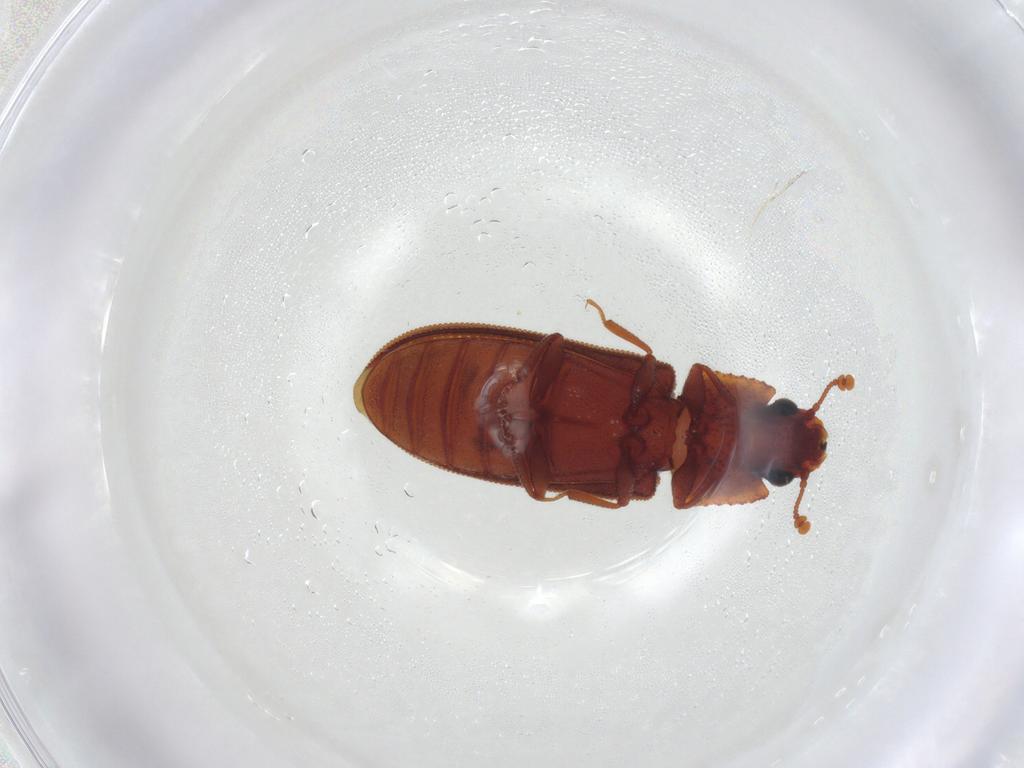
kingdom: Animalia
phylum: Arthropoda
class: Insecta
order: Coleoptera
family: Zopheridae
